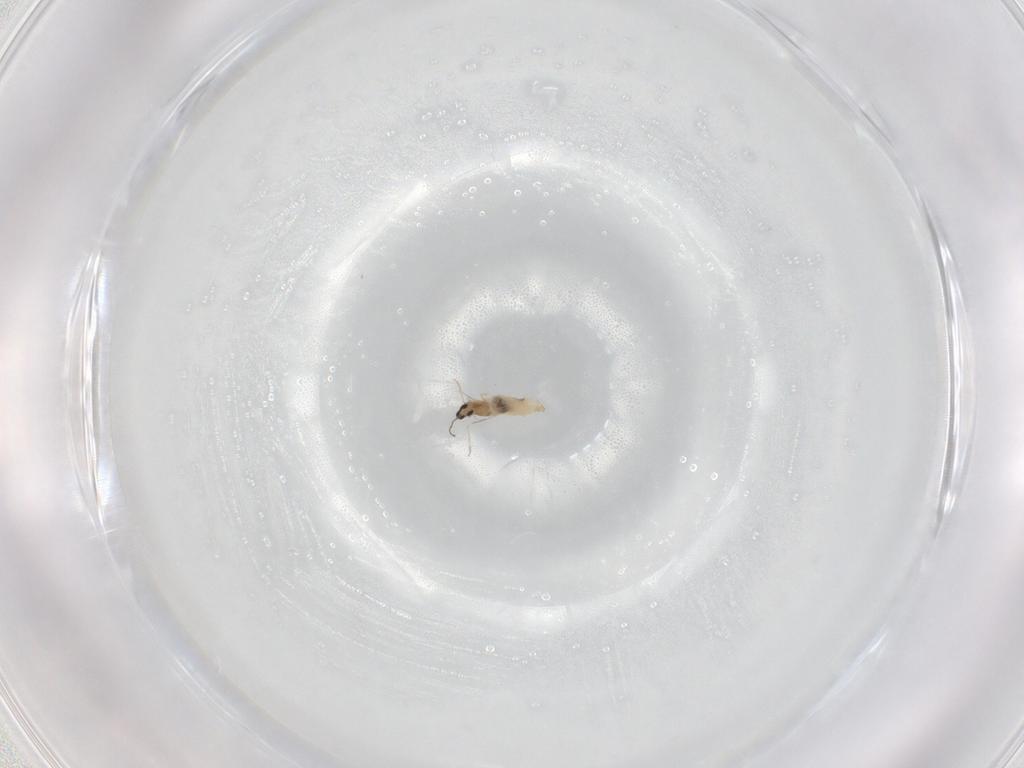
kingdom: Animalia
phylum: Arthropoda
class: Insecta
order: Diptera
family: Cecidomyiidae
